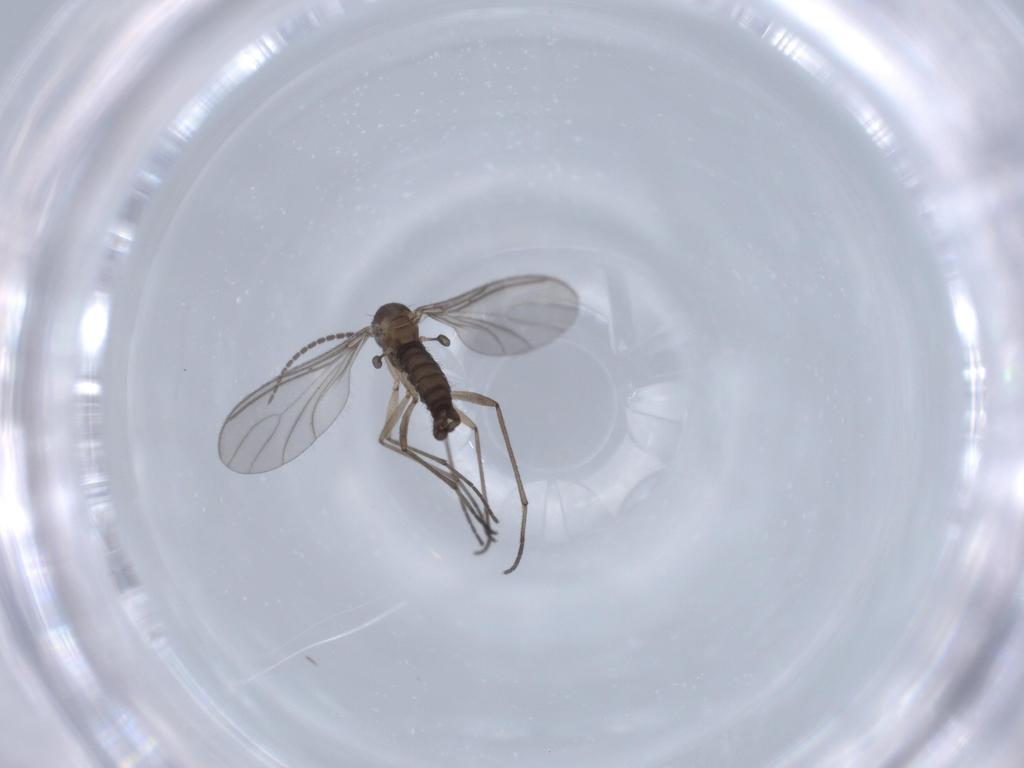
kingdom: Animalia
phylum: Arthropoda
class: Insecta
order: Diptera
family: Sciaridae
